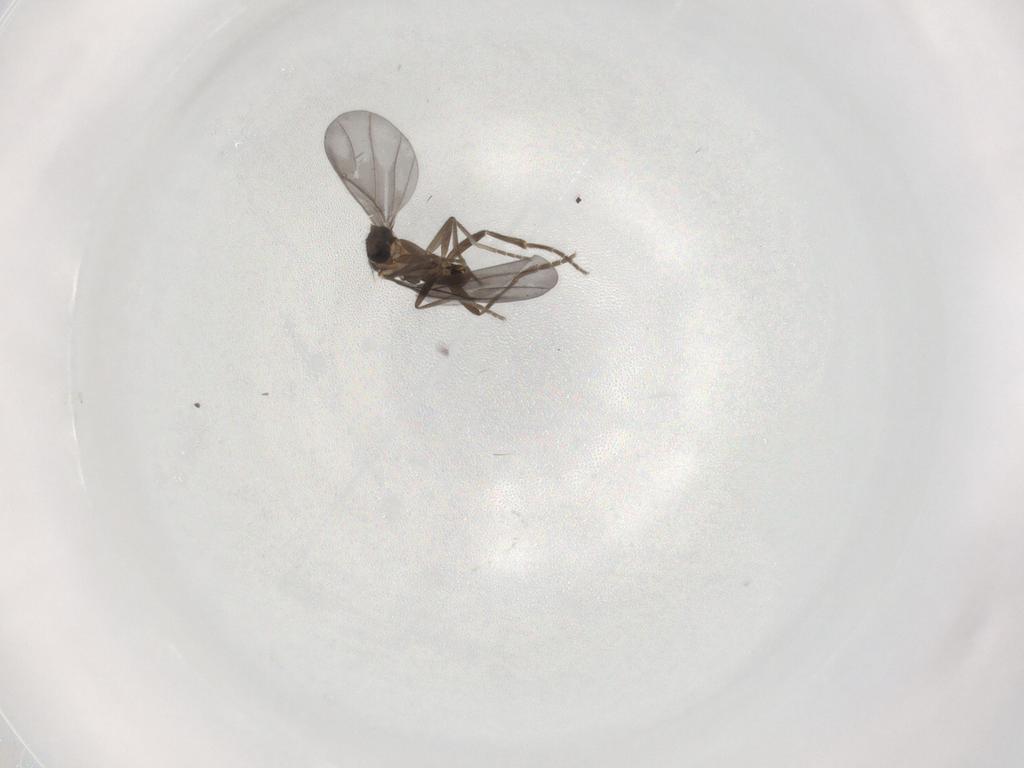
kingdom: Animalia
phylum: Arthropoda
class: Insecta
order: Diptera
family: Phoridae
